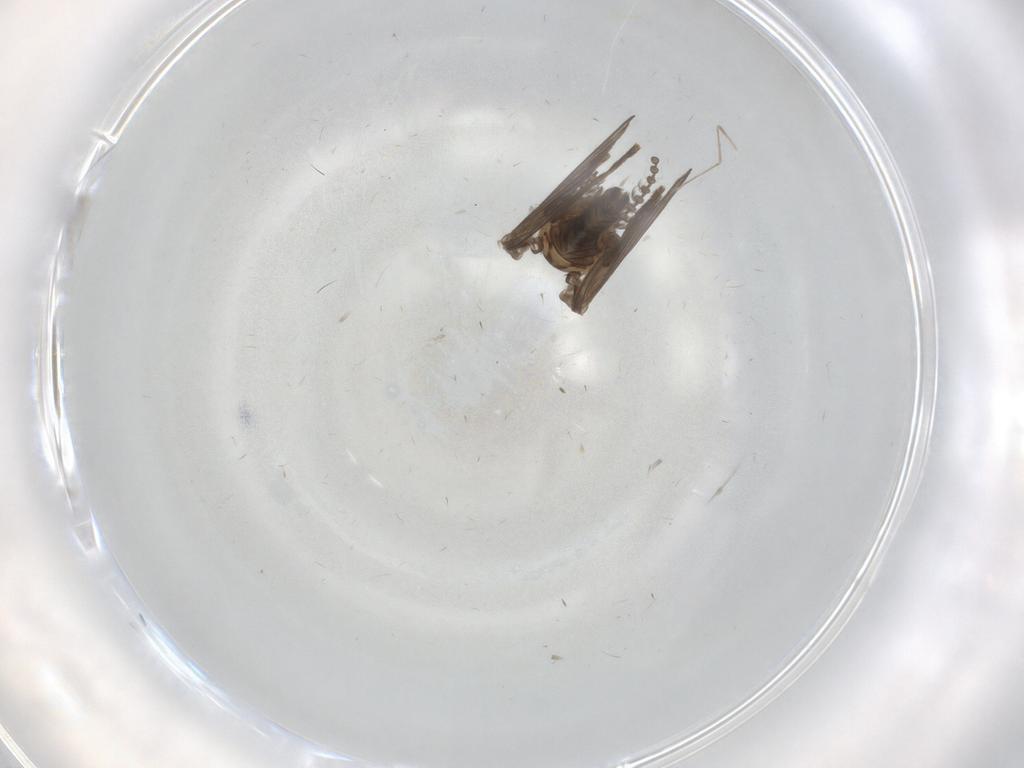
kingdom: Animalia
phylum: Arthropoda
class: Insecta
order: Diptera
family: Psychodidae
